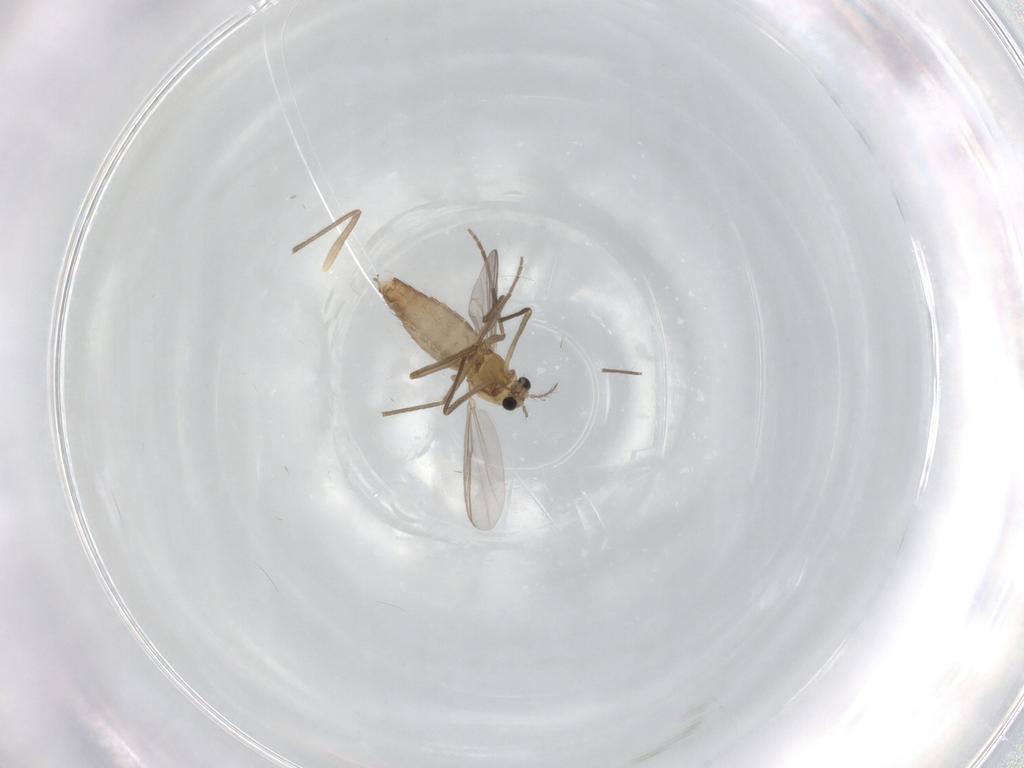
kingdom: Animalia
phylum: Arthropoda
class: Insecta
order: Diptera
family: Chironomidae
